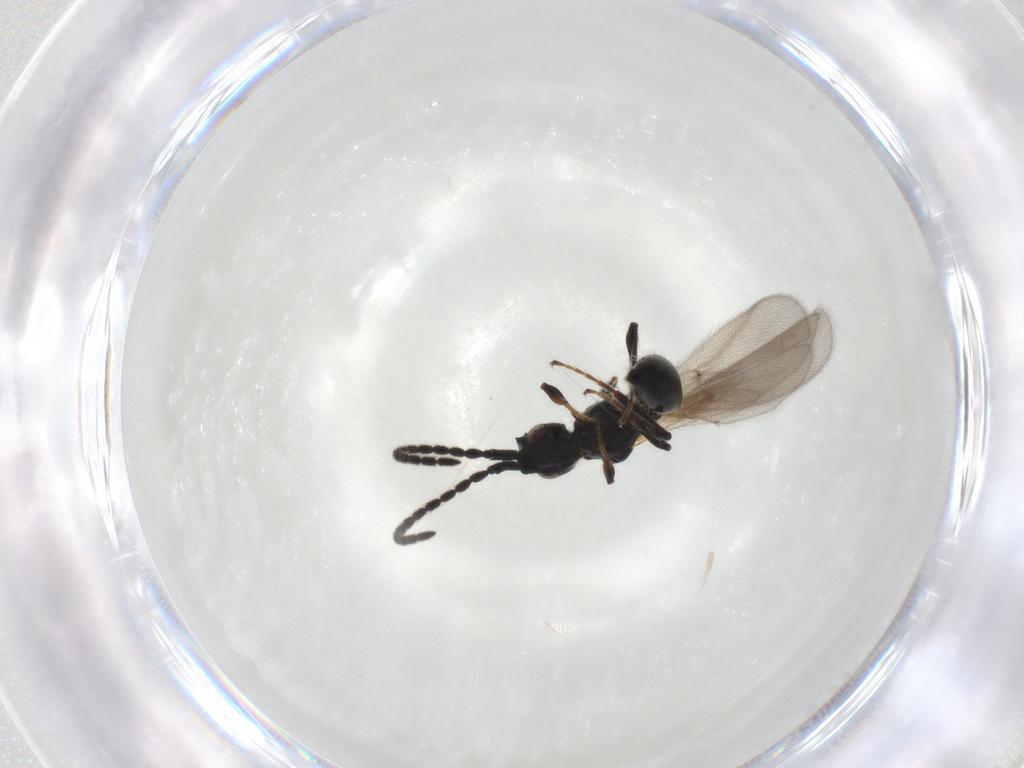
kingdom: Animalia
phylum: Arthropoda
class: Insecta
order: Hymenoptera
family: Diapriidae
